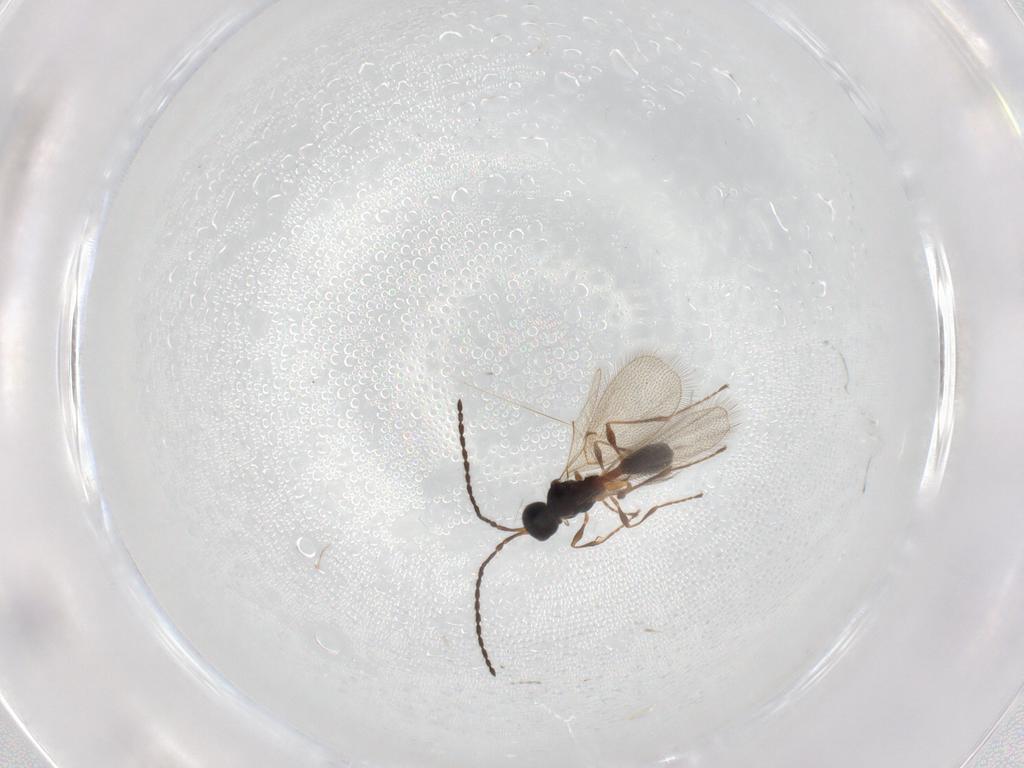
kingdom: Animalia
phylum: Arthropoda
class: Insecta
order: Hymenoptera
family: Diapriidae
